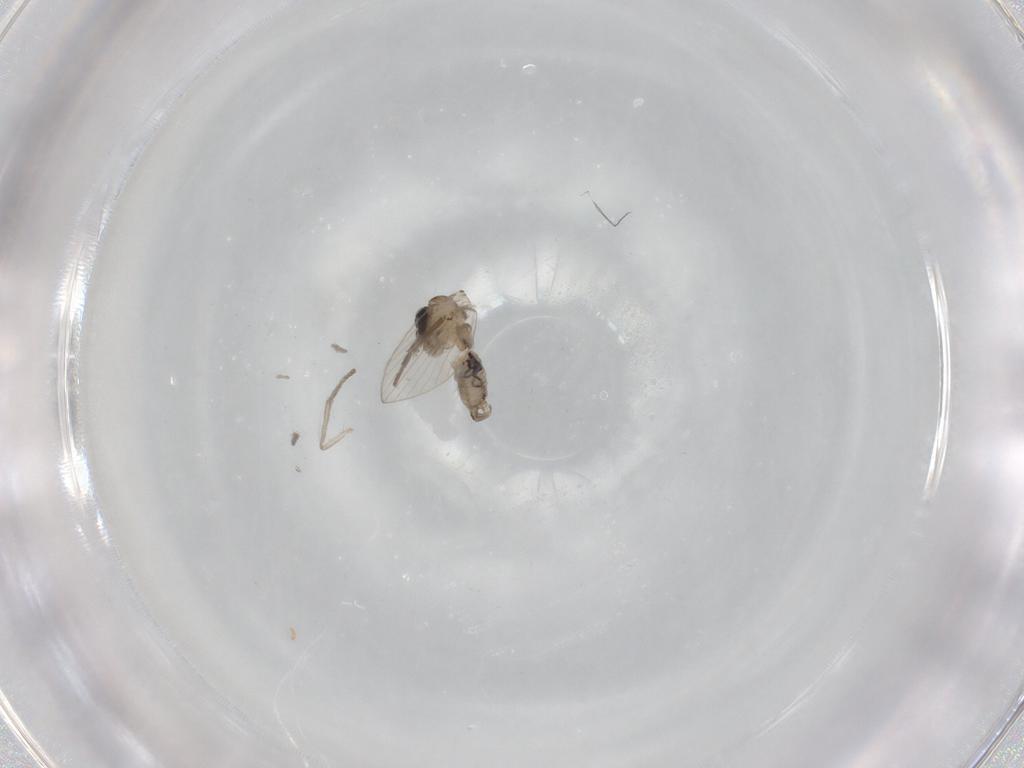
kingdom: Animalia
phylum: Arthropoda
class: Insecta
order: Diptera
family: Psychodidae
